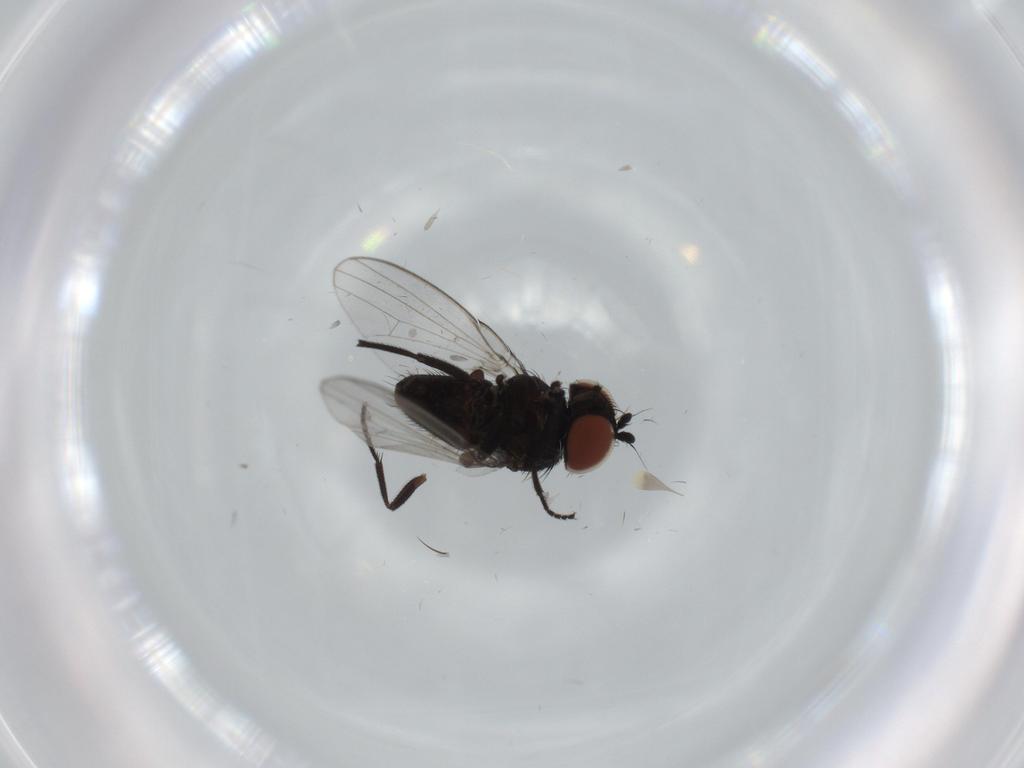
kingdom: Animalia
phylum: Arthropoda
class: Insecta
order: Diptera
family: Milichiidae
